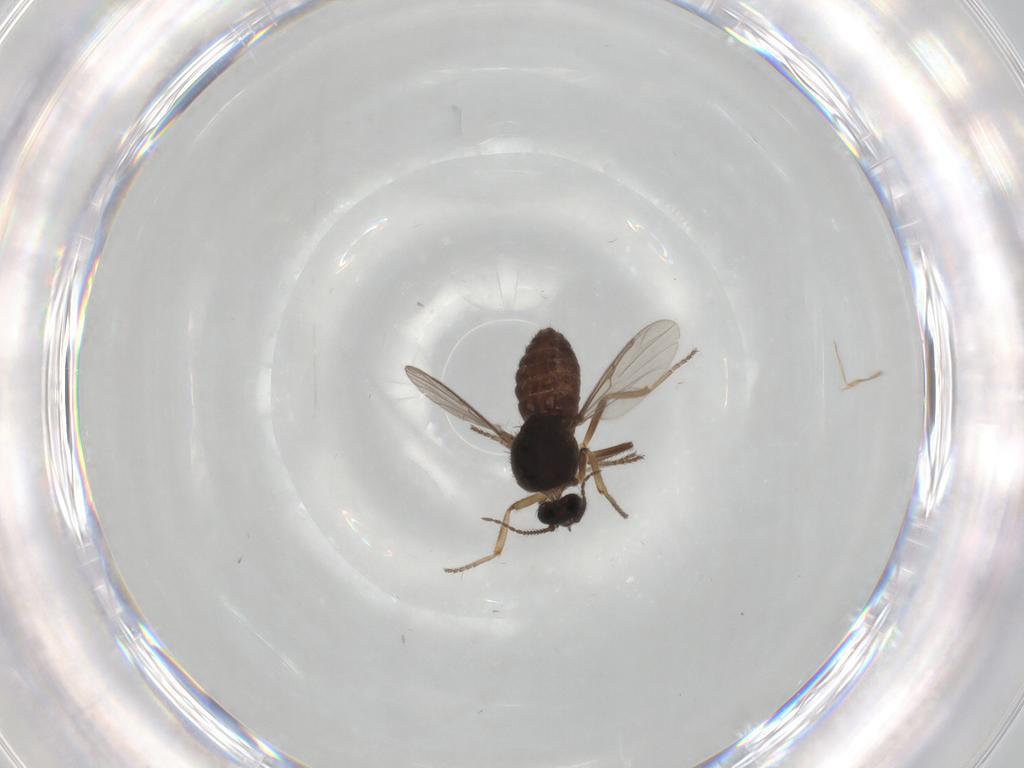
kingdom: Animalia
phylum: Arthropoda
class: Insecta
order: Diptera
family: Ceratopogonidae
